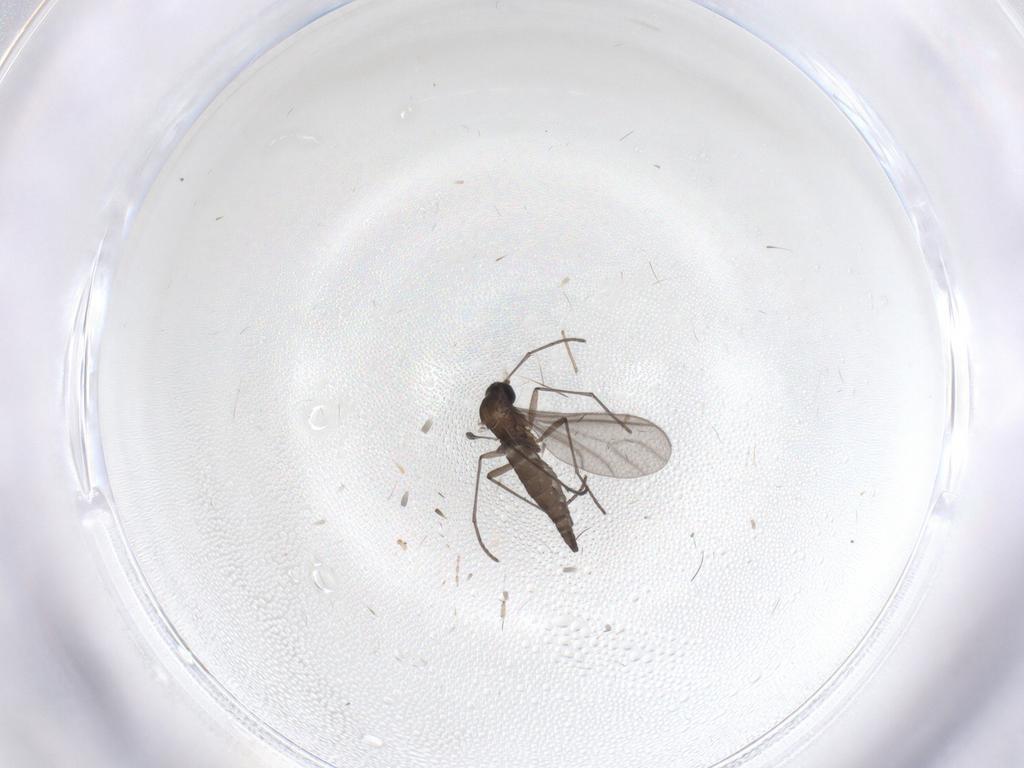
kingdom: Animalia
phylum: Arthropoda
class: Insecta
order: Diptera
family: Sciaridae
